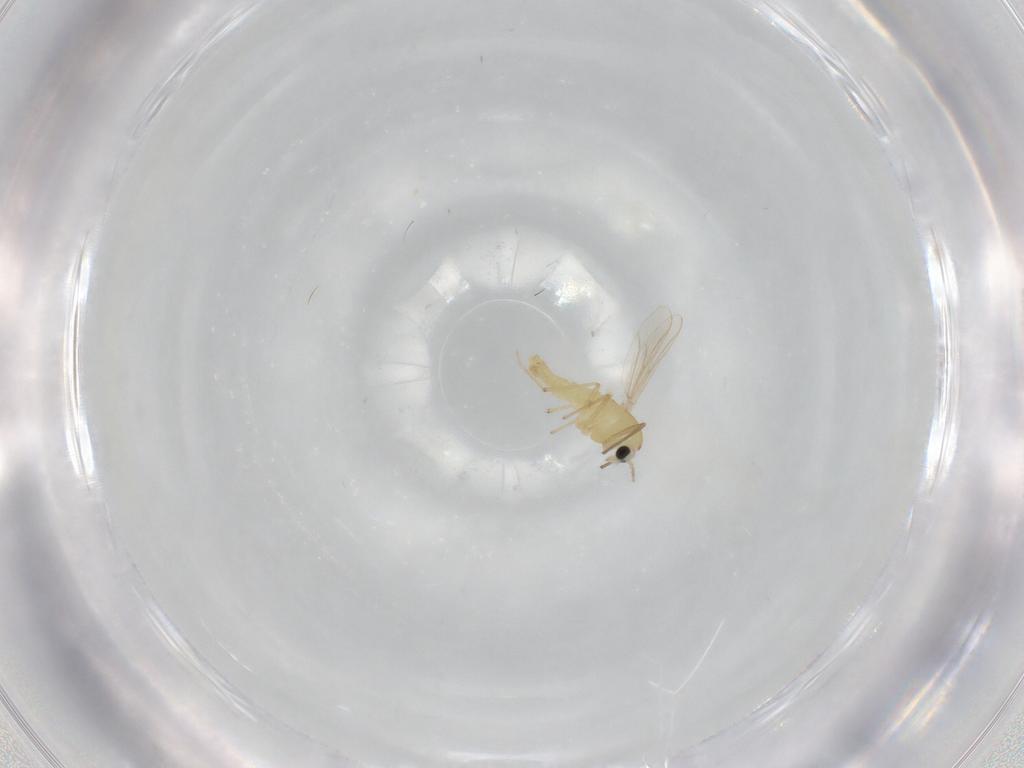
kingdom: Animalia
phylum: Arthropoda
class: Insecta
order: Diptera
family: Chironomidae
